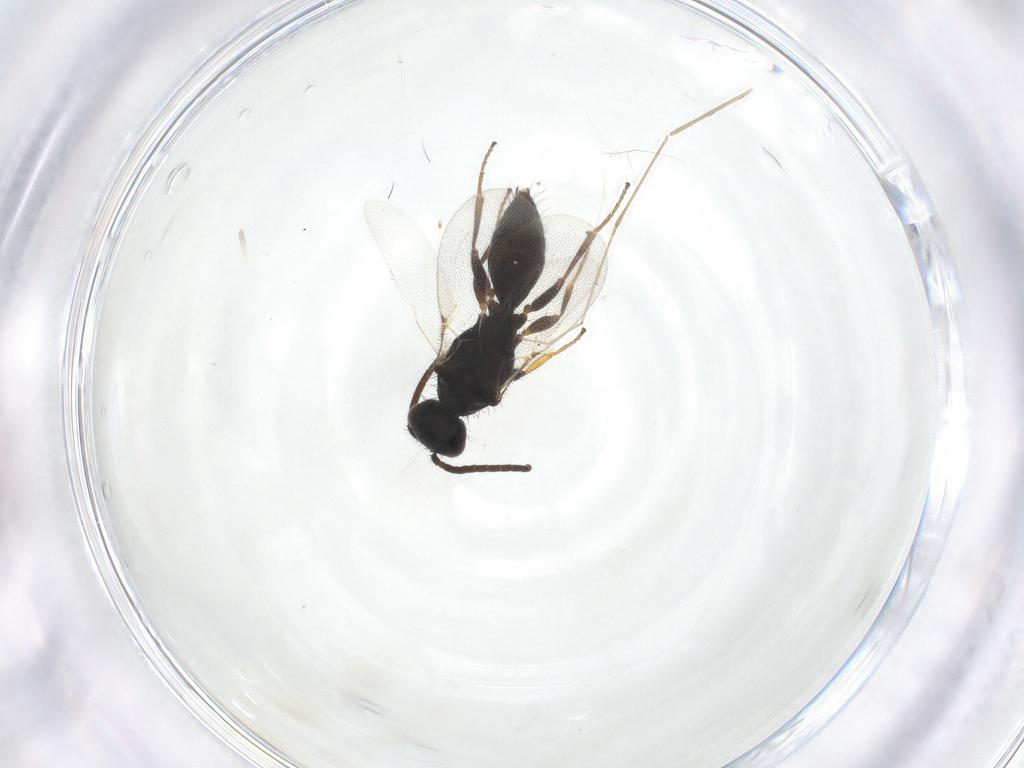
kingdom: Animalia
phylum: Arthropoda
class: Insecta
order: Hymenoptera
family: Bethylidae
